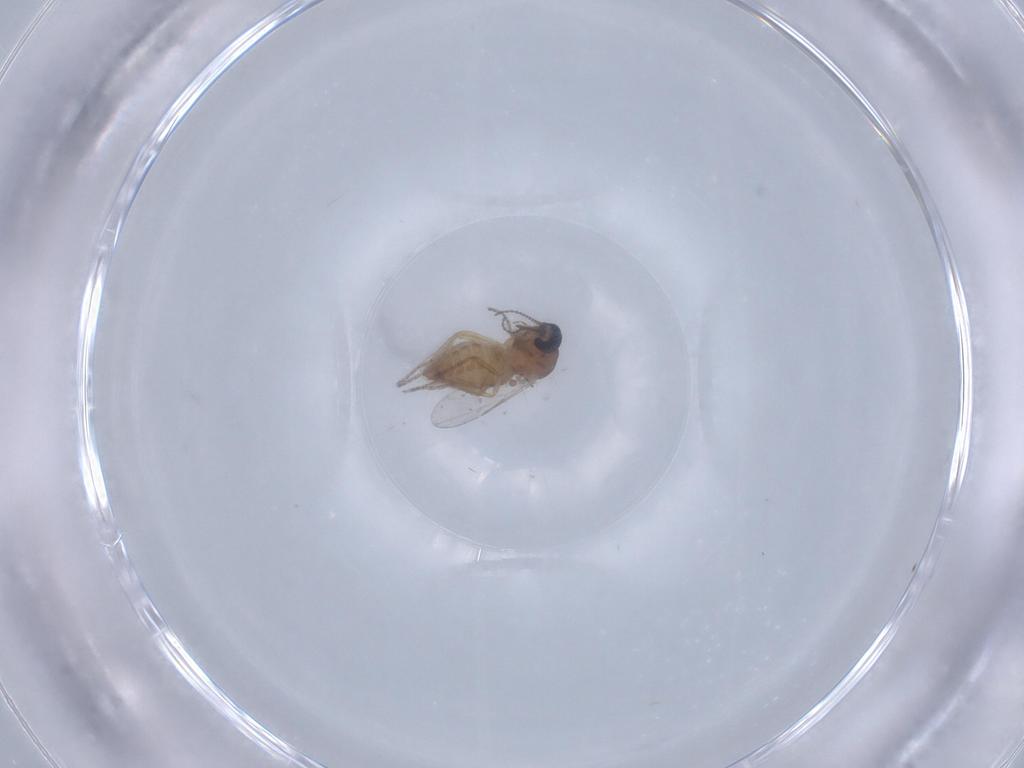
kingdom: Animalia
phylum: Arthropoda
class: Insecta
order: Diptera
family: Ceratopogonidae
